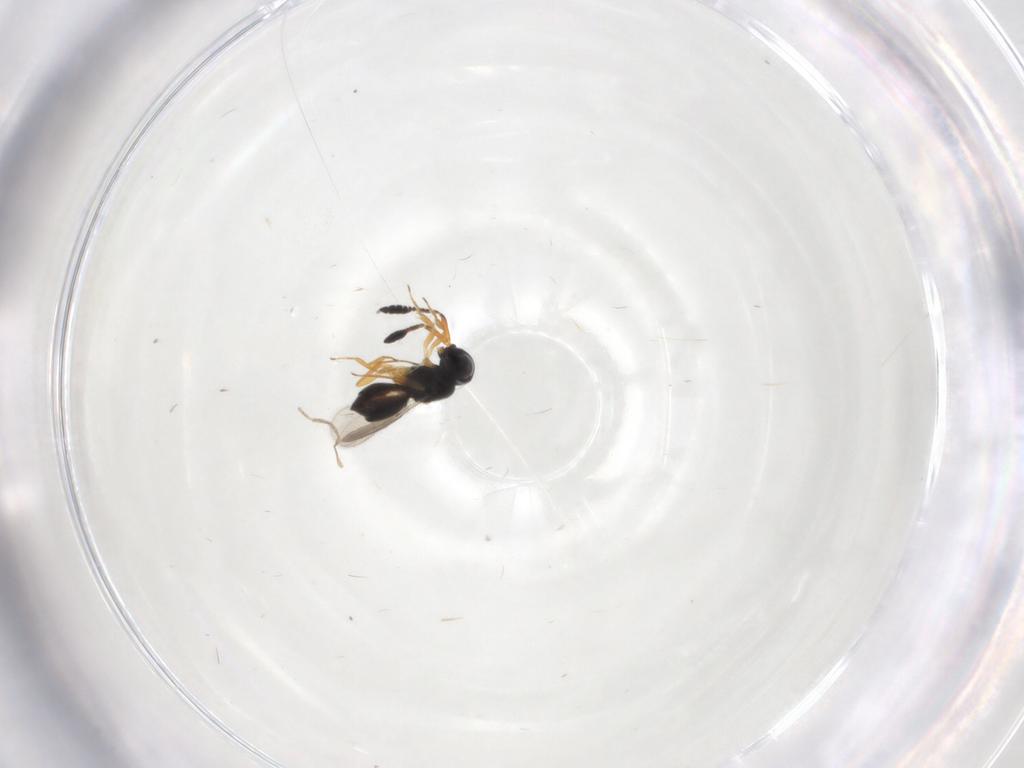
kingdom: Animalia
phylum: Arthropoda
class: Insecta
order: Hymenoptera
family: Scelionidae
